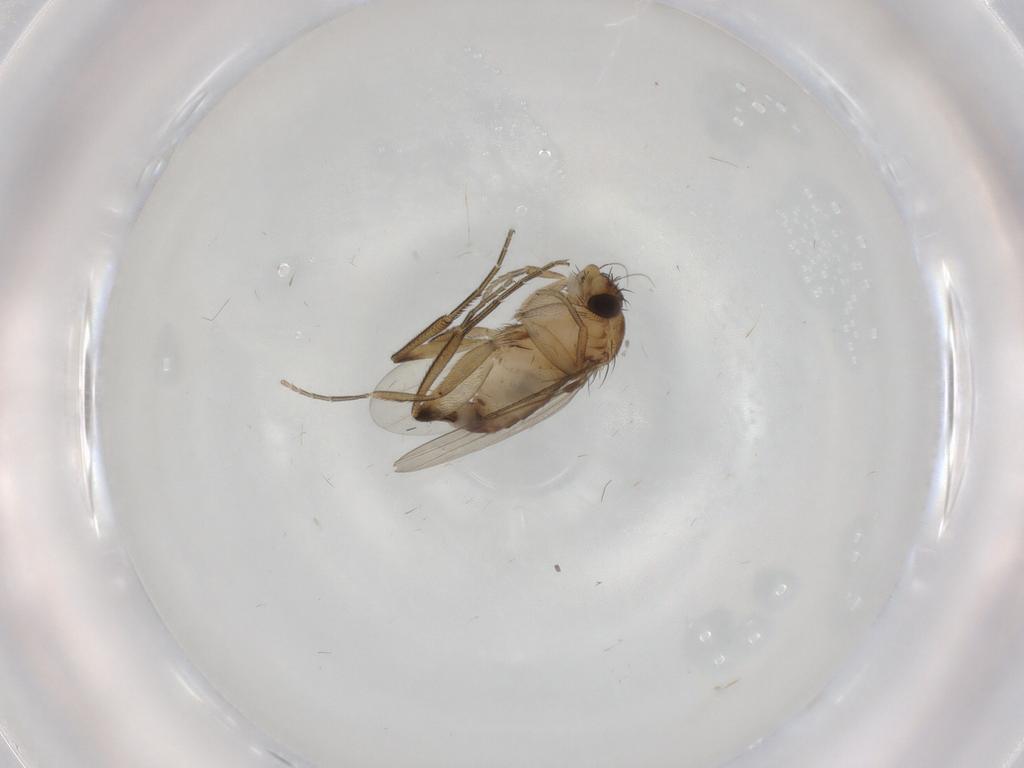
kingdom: Animalia
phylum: Arthropoda
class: Insecta
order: Diptera
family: Phoridae
